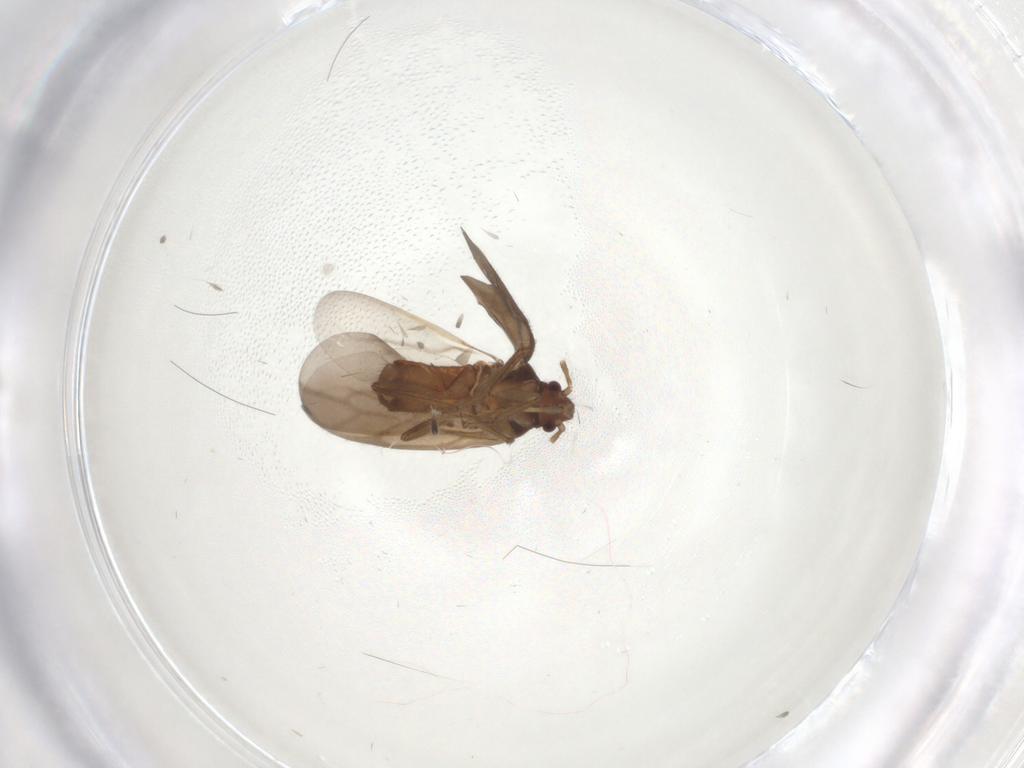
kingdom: Animalia
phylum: Arthropoda
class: Insecta
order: Hemiptera
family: Ceratocombidae
